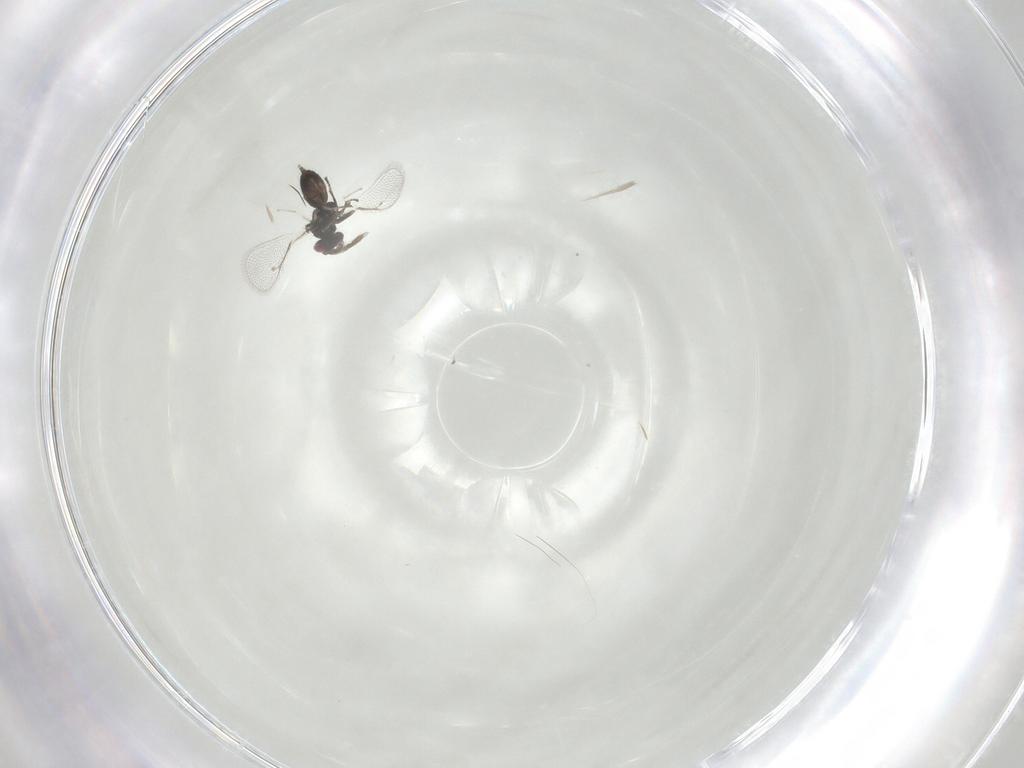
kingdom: Animalia
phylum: Arthropoda
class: Insecta
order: Hymenoptera
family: Eulophidae
